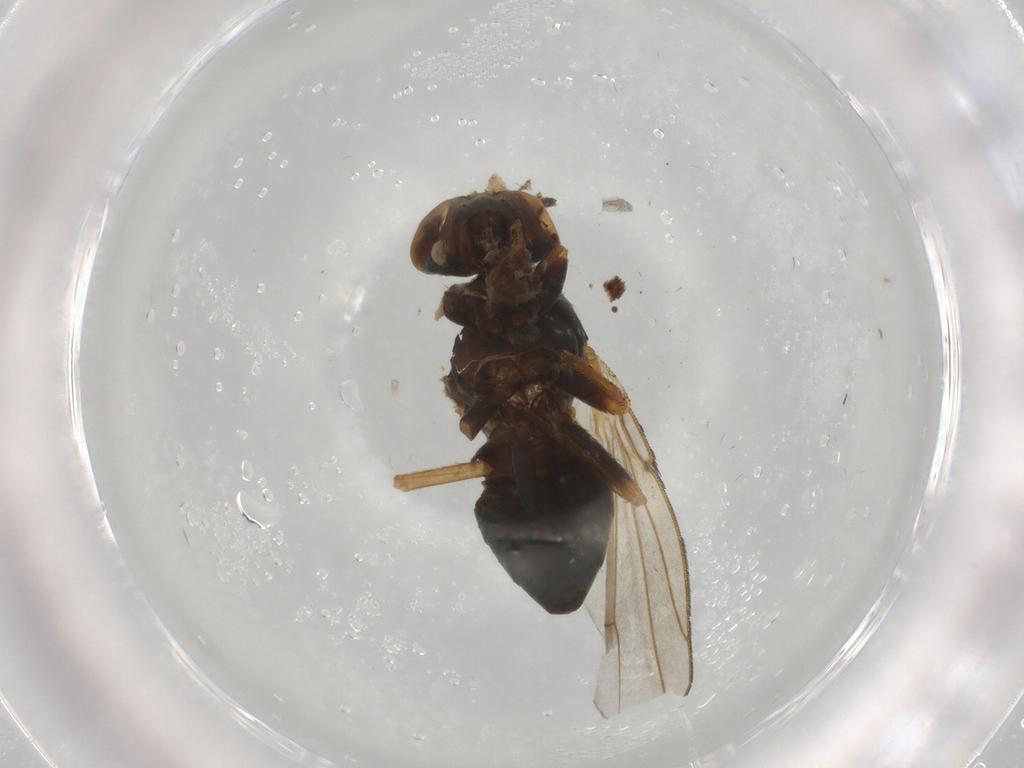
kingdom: Animalia
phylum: Arthropoda
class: Insecta
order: Diptera
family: Ephydridae
